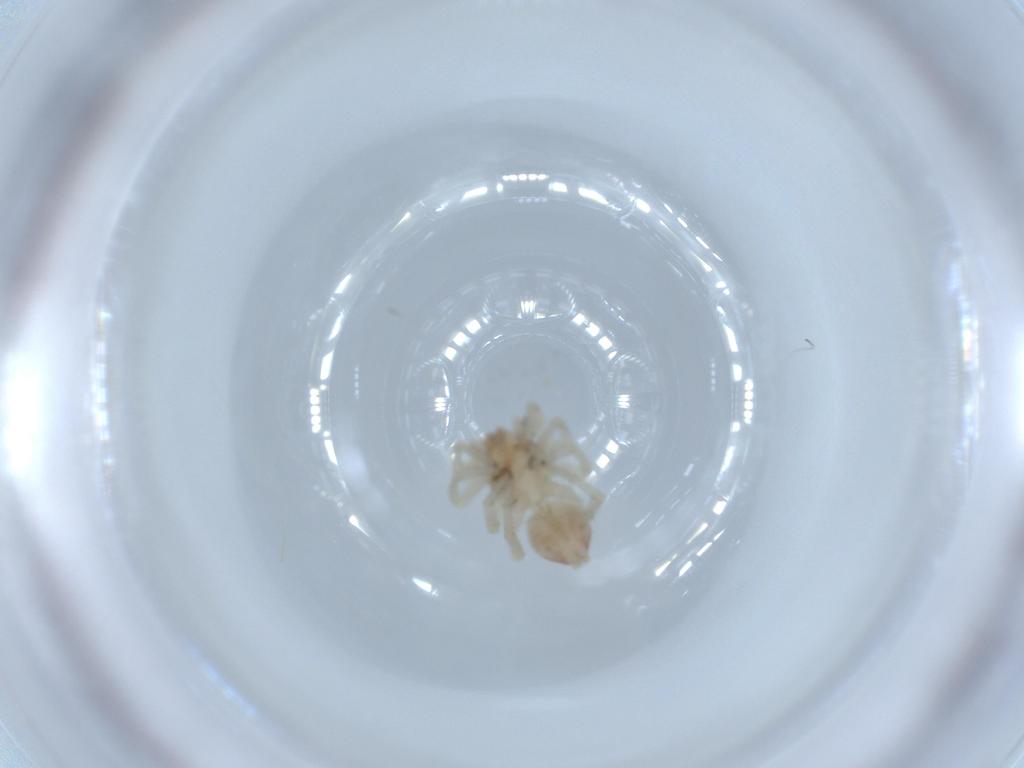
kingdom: Animalia
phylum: Arthropoda
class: Arachnida
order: Araneae
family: Clubionidae
